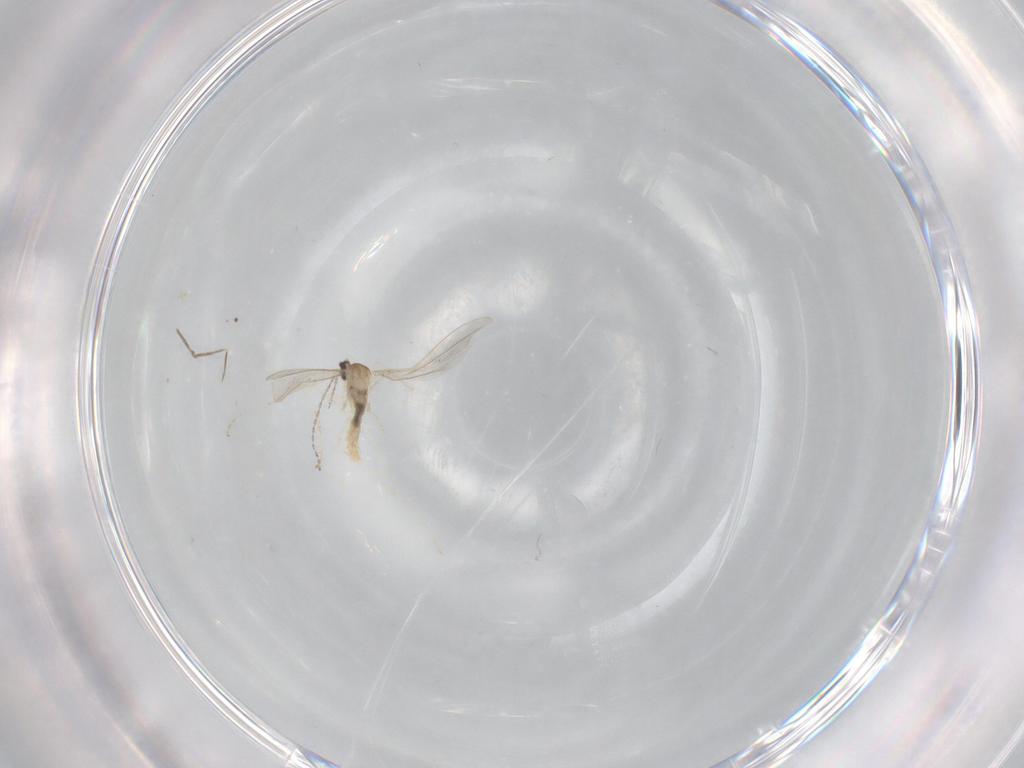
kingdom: Animalia
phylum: Arthropoda
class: Insecta
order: Diptera
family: Cecidomyiidae
